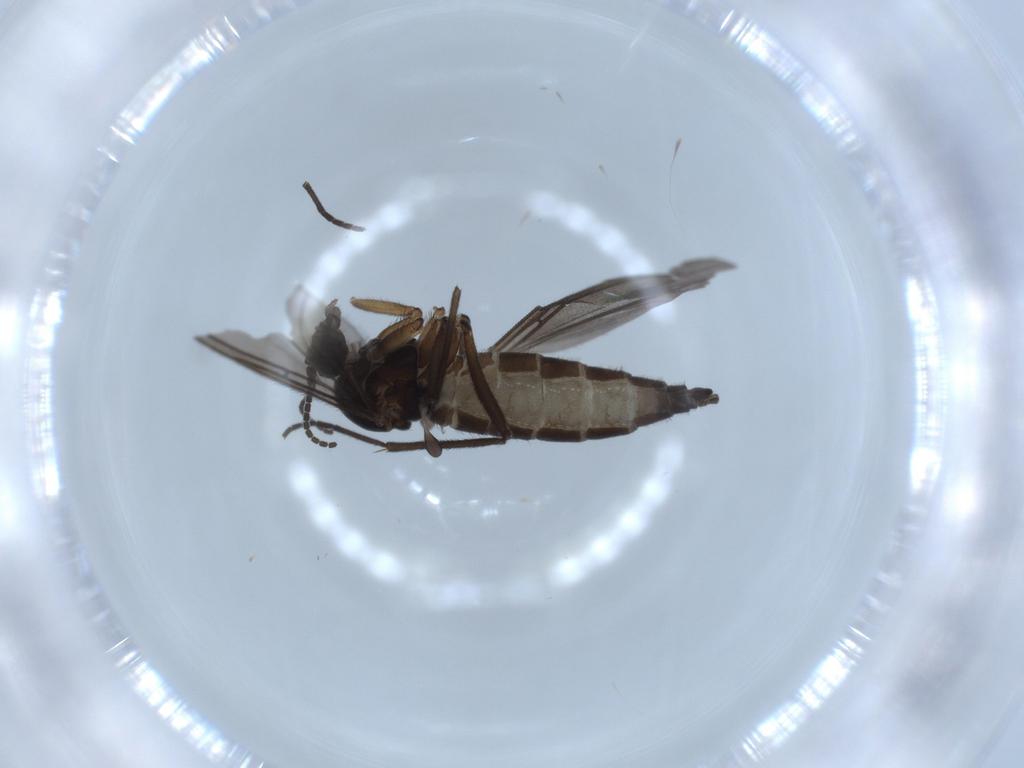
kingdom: Animalia
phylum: Arthropoda
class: Insecta
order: Diptera
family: Sciaridae
